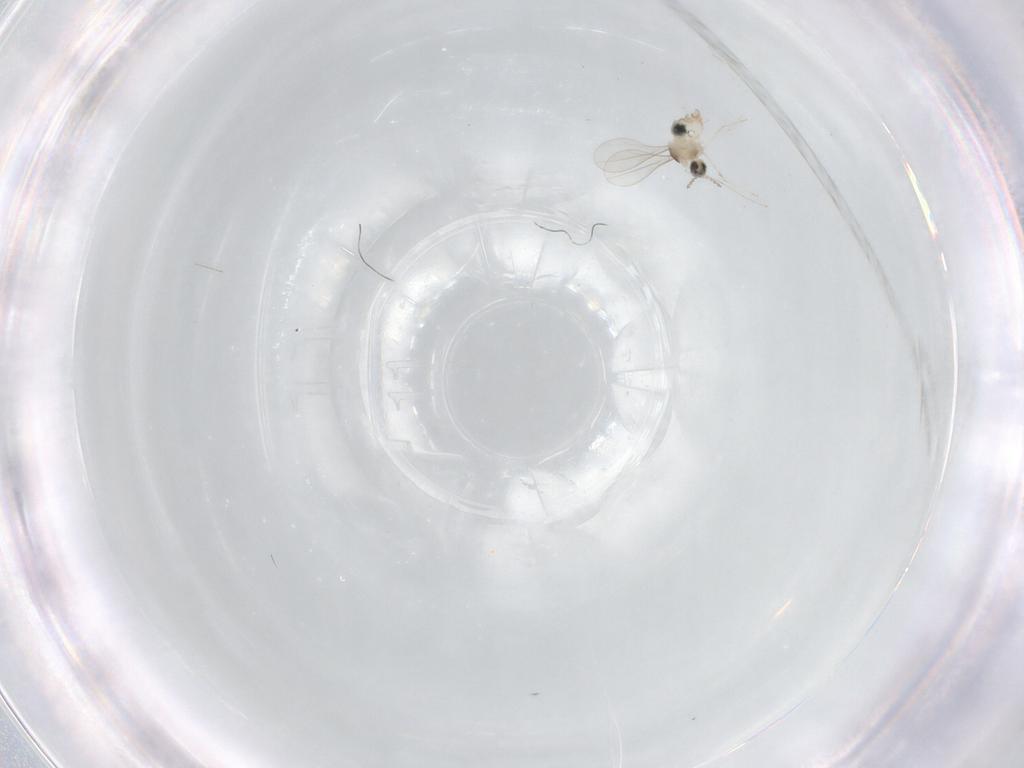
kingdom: Animalia
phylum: Arthropoda
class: Insecta
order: Diptera
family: Cecidomyiidae
